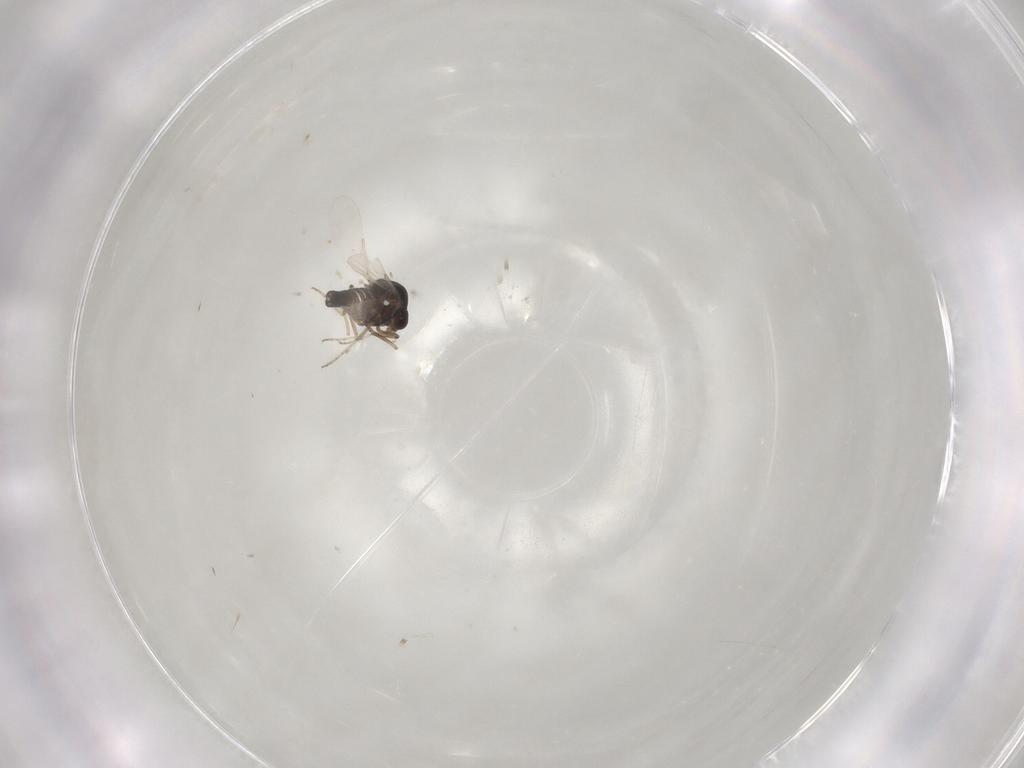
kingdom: Animalia
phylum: Arthropoda
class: Insecta
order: Diptera
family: Ceratopogonidae
